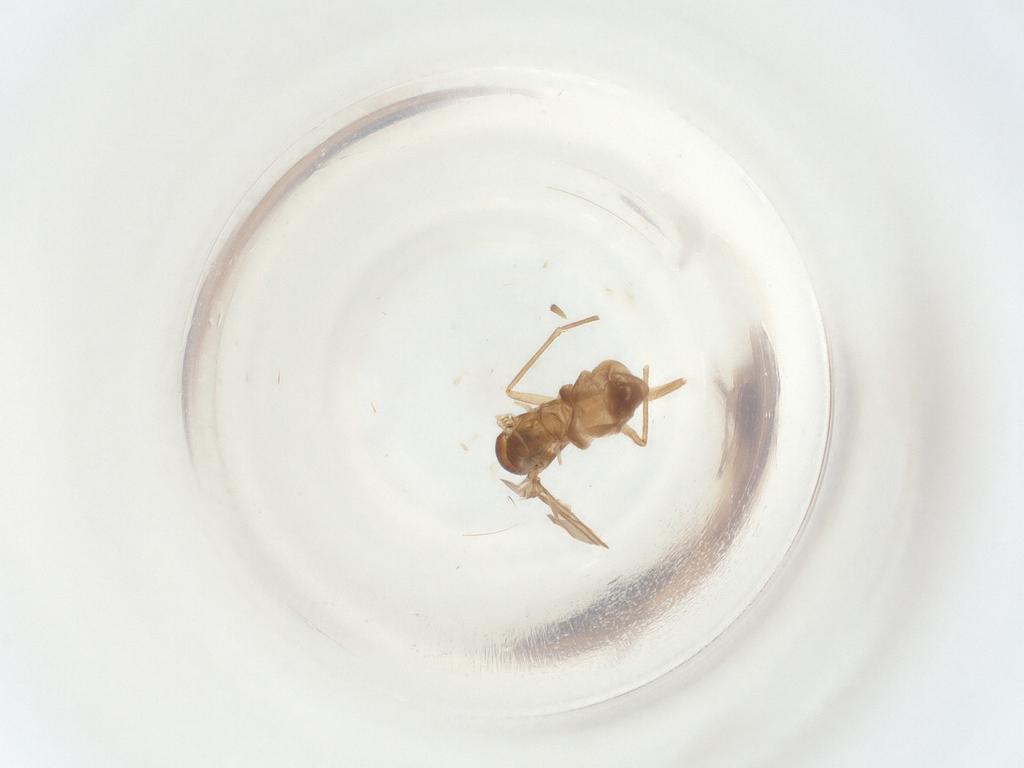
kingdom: Animalia
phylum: Arthropoda
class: Insecta
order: Diptera
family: Sciaridae
